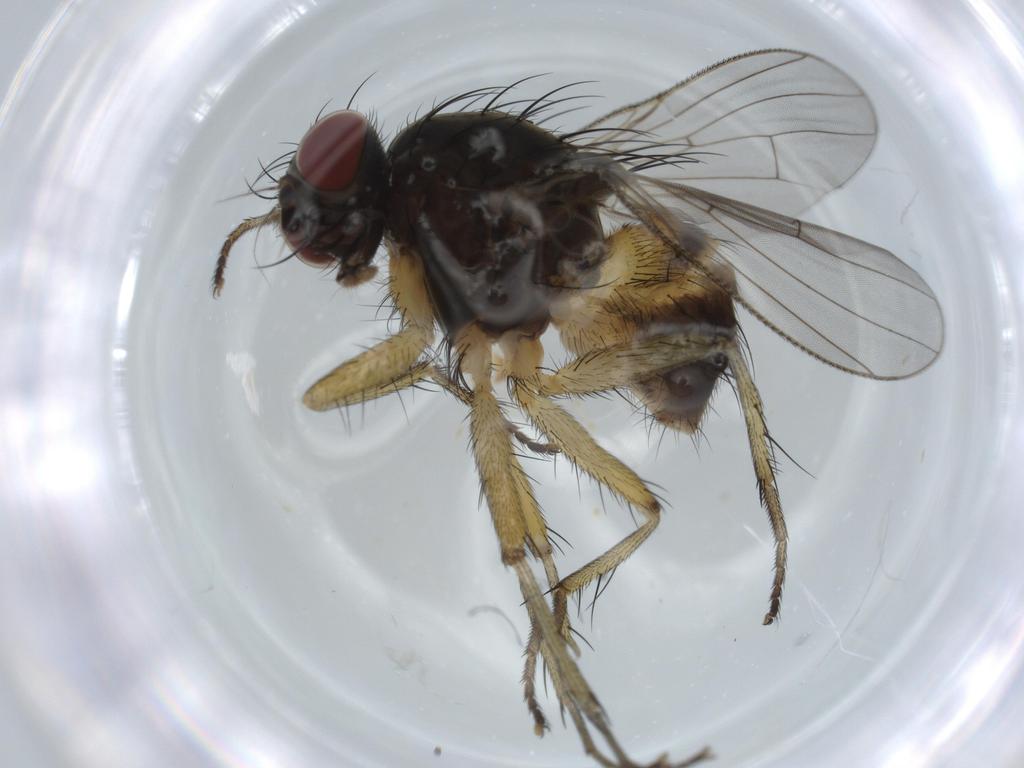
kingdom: Animalia
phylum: Arthropoda
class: Insecta
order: Diptera
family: Muscidae
